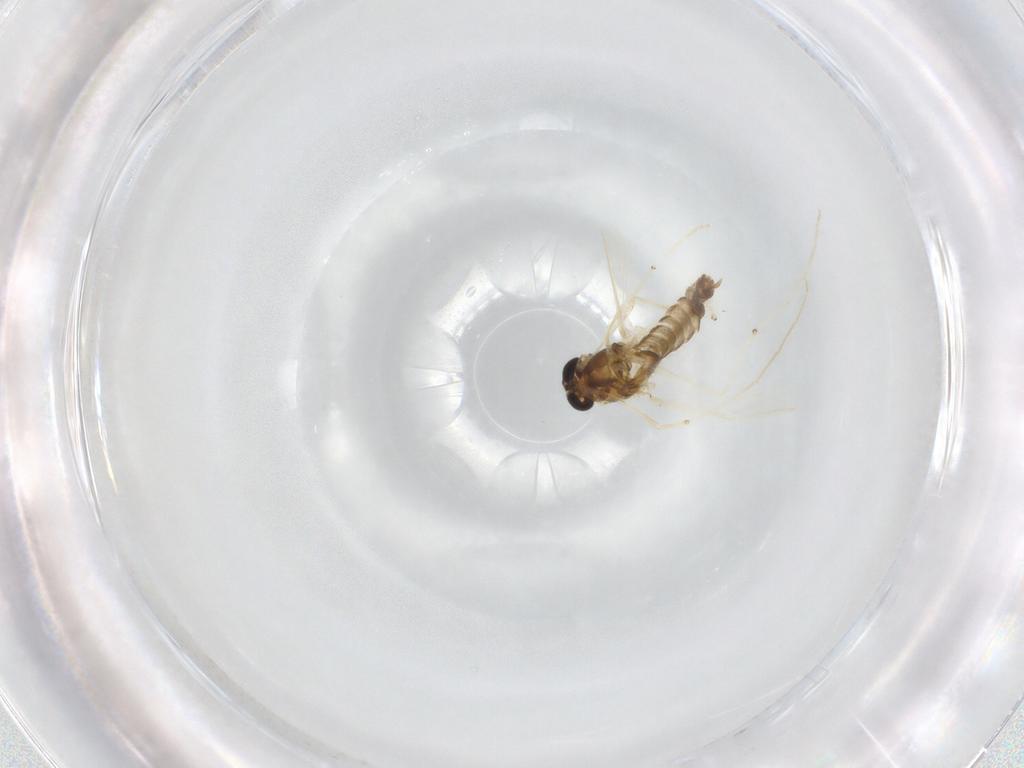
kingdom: Animalia
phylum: Arthropoda
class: Insecta
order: Diptera
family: Chironomidae
